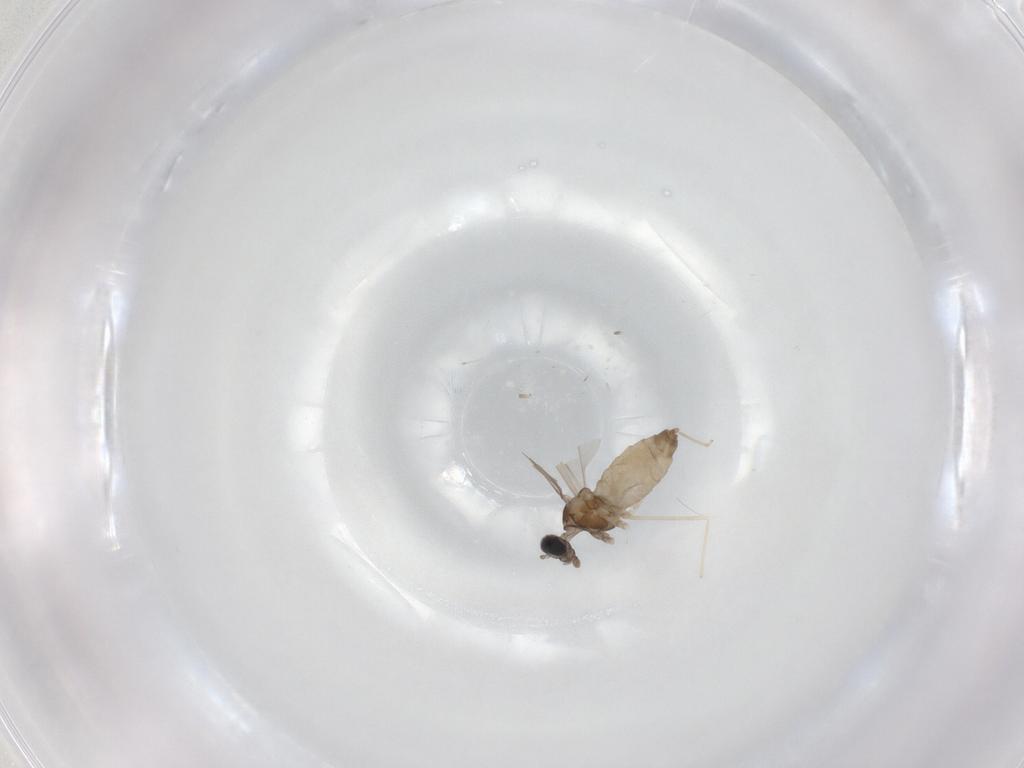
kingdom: Animalia
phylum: Arthropoda
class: Insecta
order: Diptera
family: Cecidomyiidae
